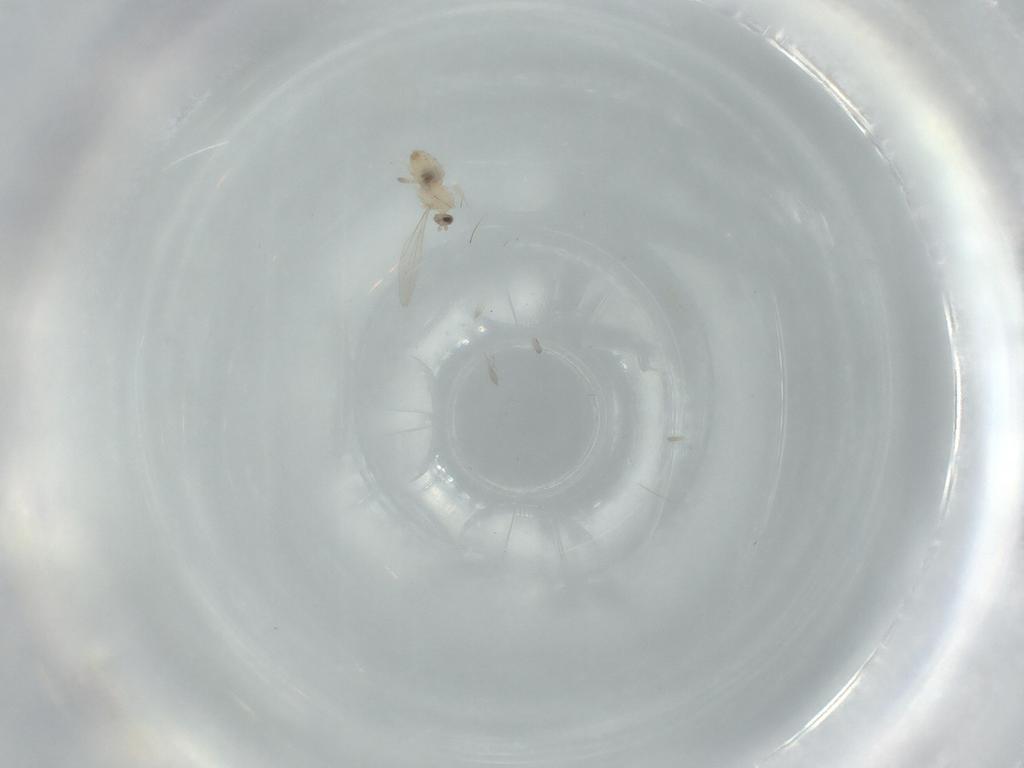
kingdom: Animalia
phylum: Arthropoda
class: Insecta
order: Diptera
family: Cecidomyiidae
